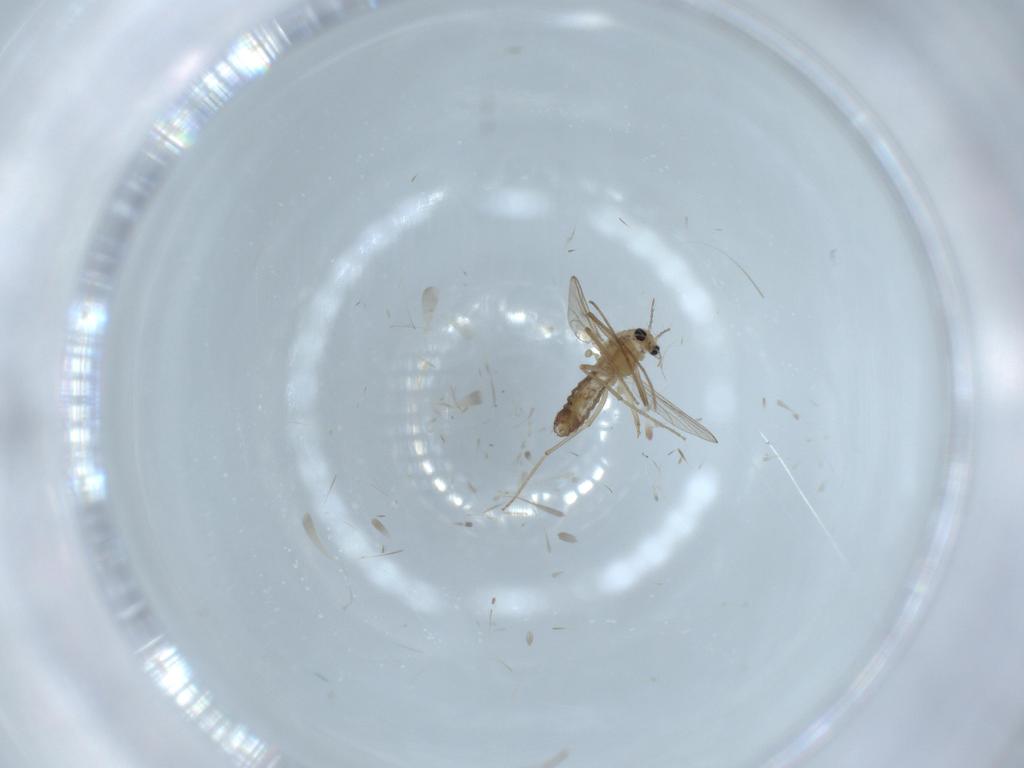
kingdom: Animalia
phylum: Arthropoda
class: Insecta
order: Diptera
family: Chironomidae
